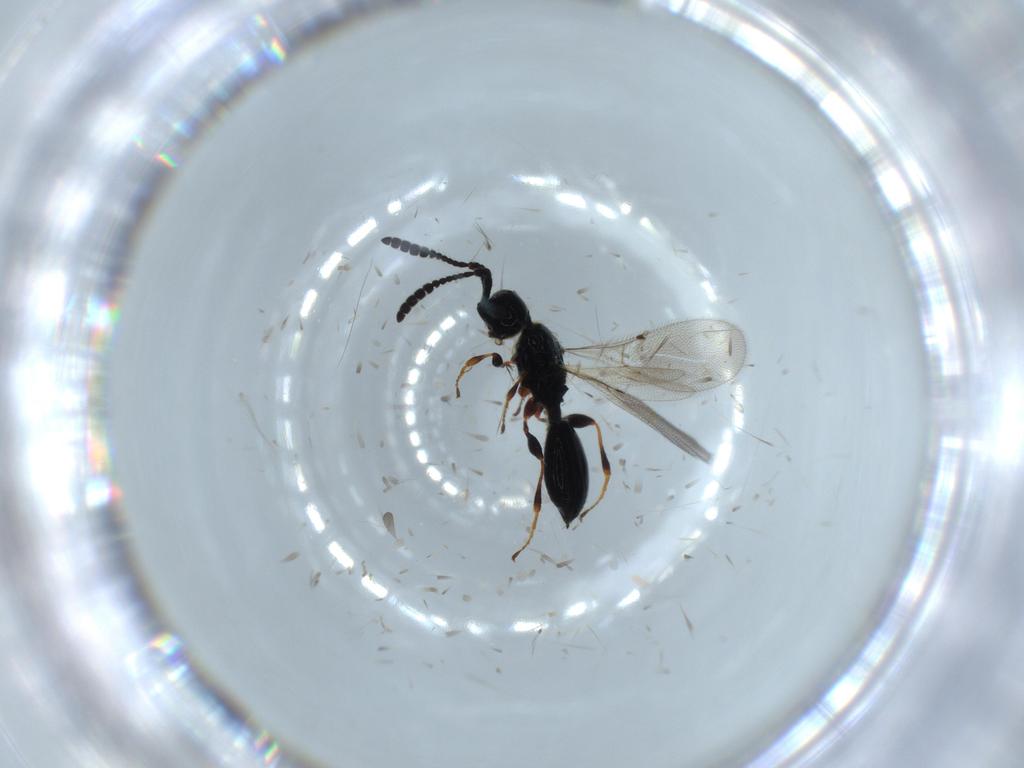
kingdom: Animalia
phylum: Arthropoda
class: Insecta
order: Hymenoptera
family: Diapriidae
